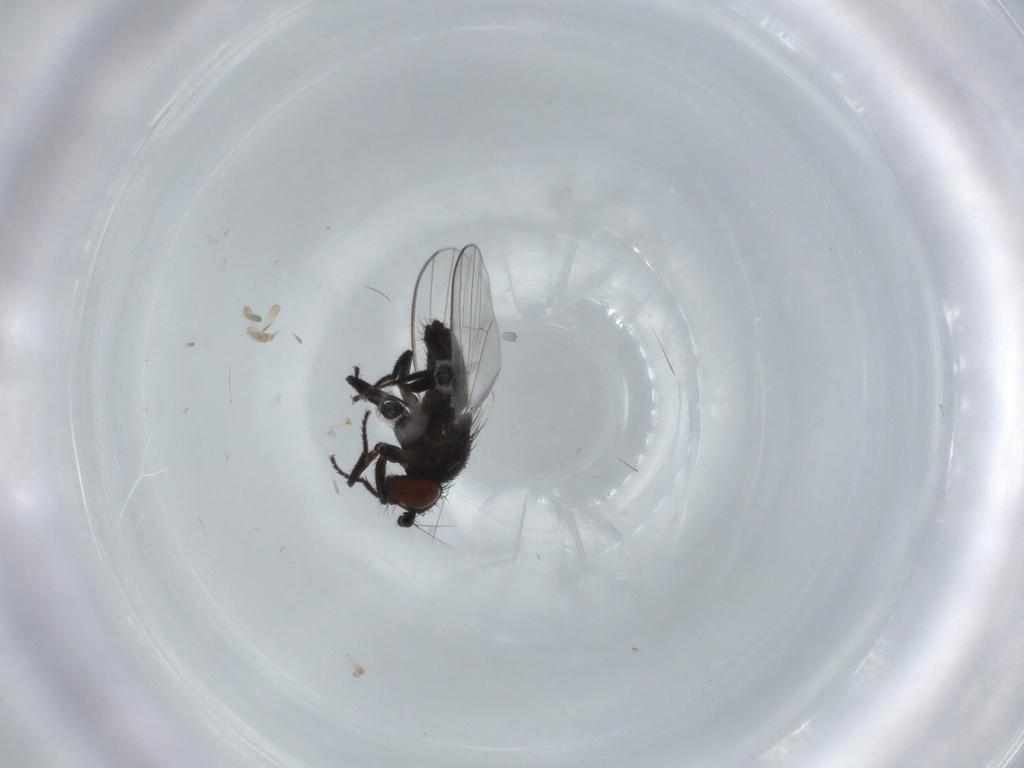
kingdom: Animalia
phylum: Arthropoda
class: Insecta
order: Diptera
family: Milichiidae
